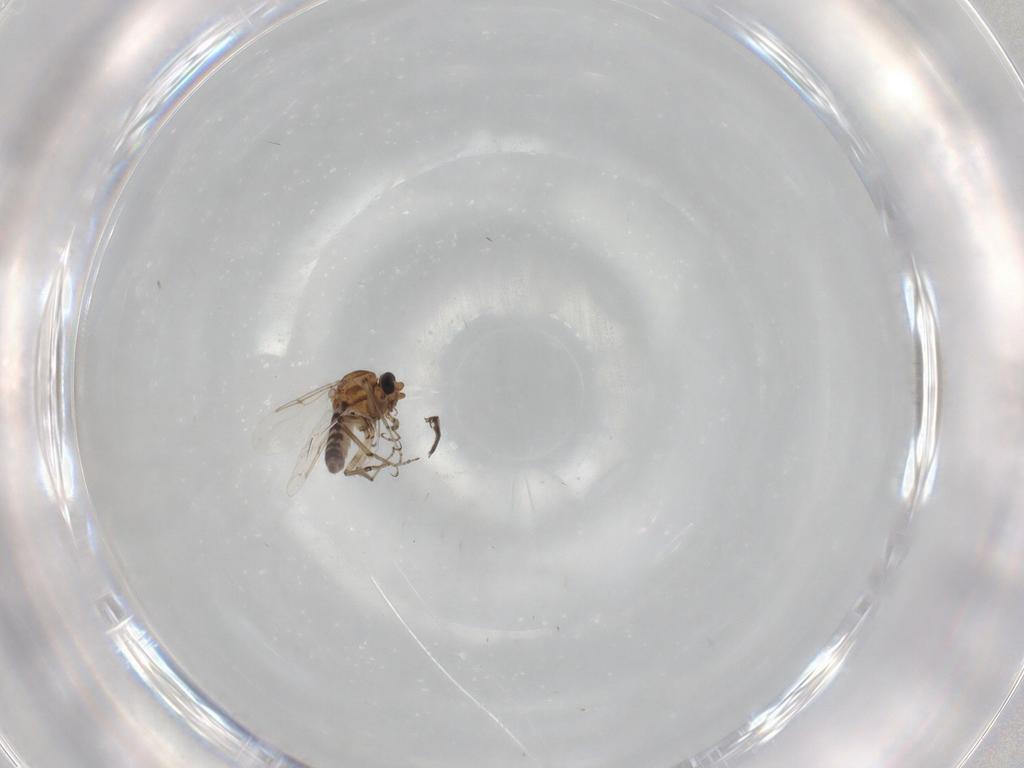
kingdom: Animalia
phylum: Arthropoda
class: Insecta
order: Diptera
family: Ceratopogonidae
